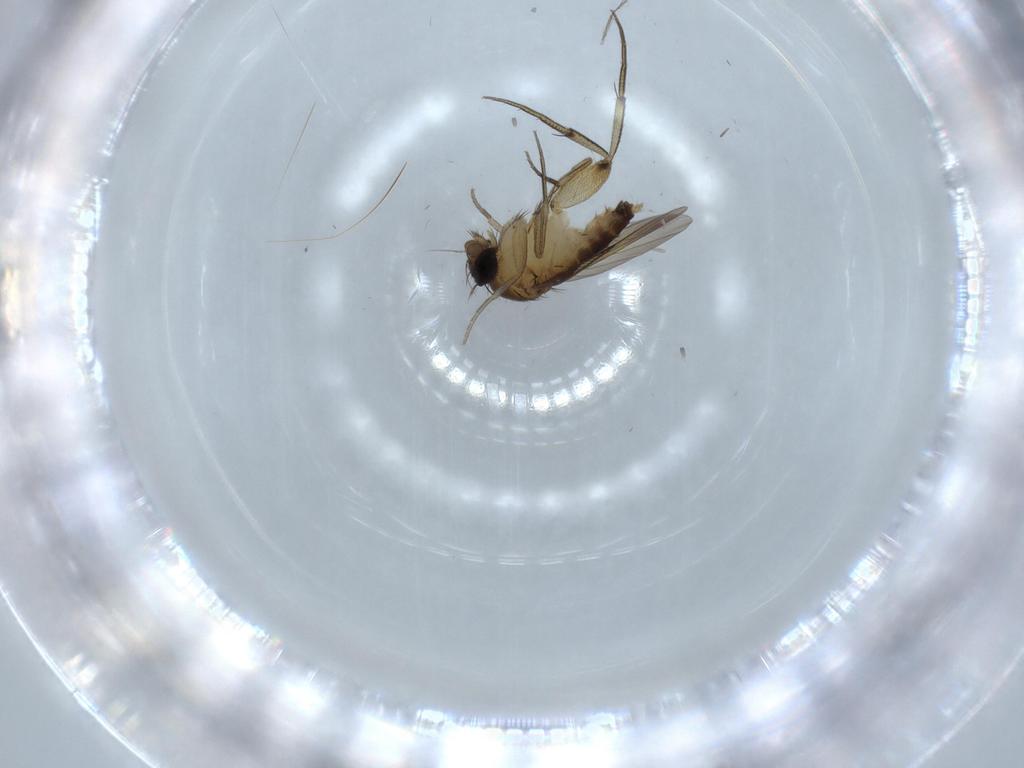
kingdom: Animalia
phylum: Arthropoda
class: Insecta
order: Diptera
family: Phoridae
